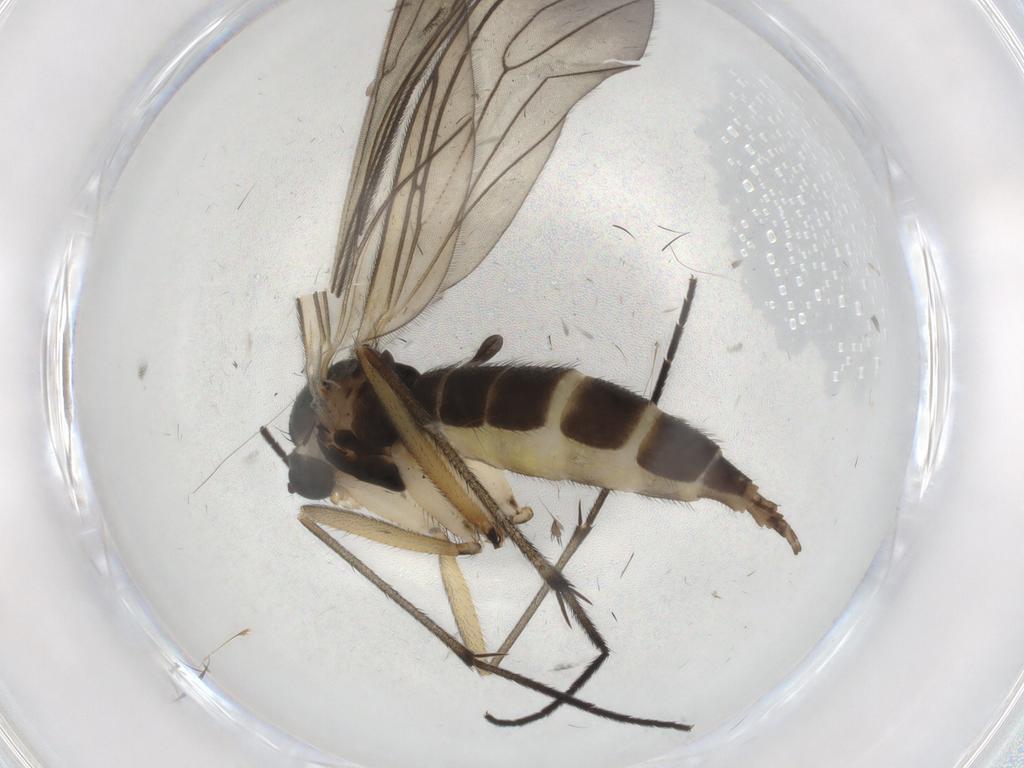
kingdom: Animalia
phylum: Arthropoda
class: Insecta
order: Diptera
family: Sciaridae
